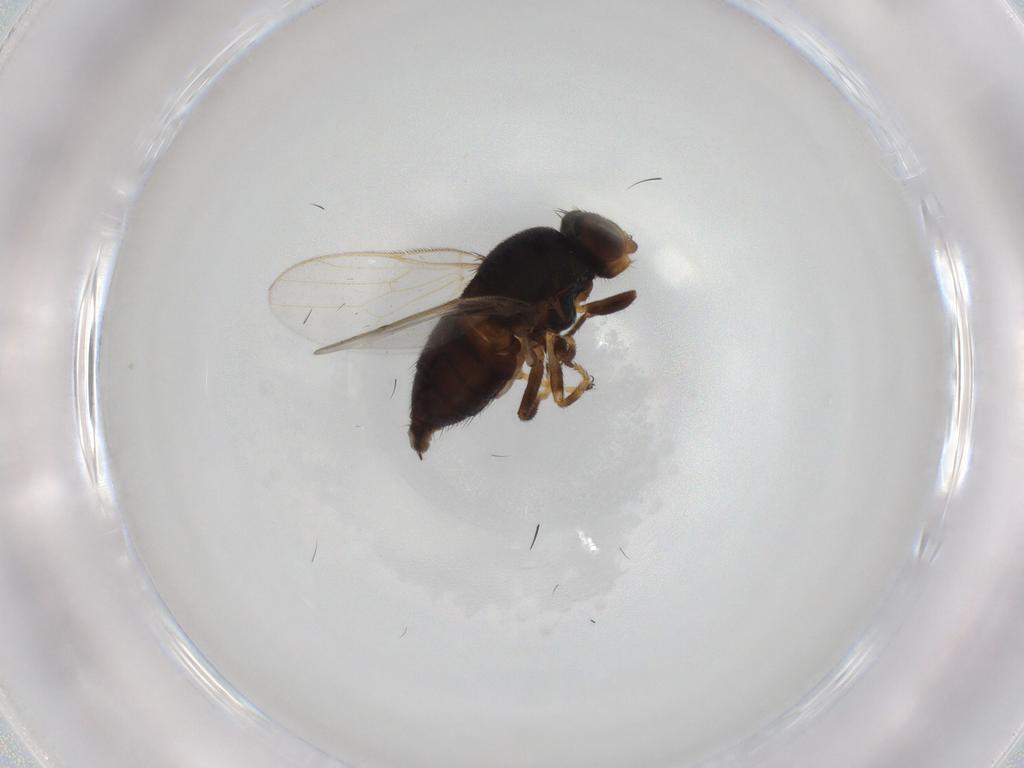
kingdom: Animalia
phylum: Arthropoda
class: Insecta
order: Diptera
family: Chloropidae
